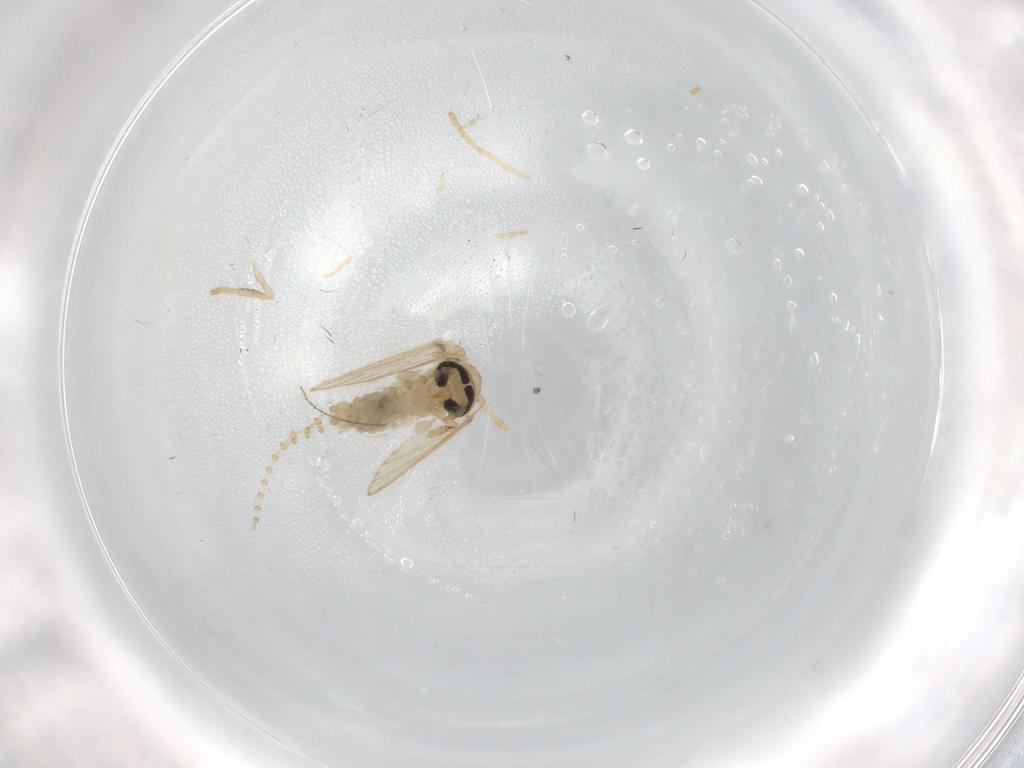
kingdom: Animalia
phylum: Arthropoda
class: Insecta
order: Diptera
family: Psychodidae
